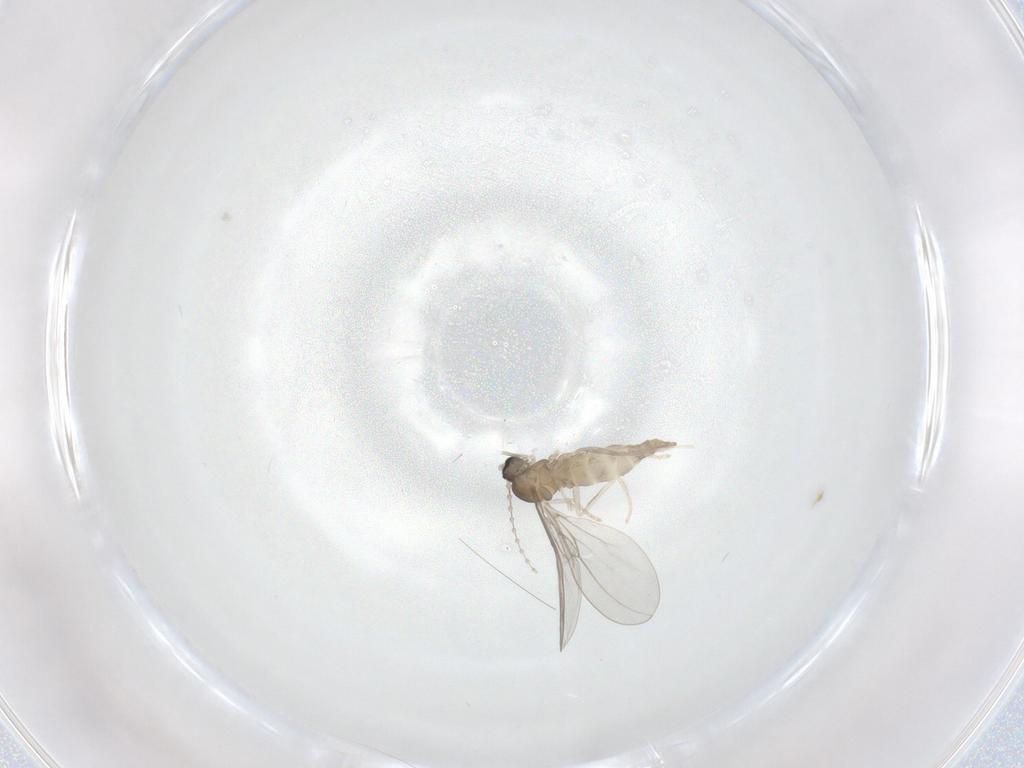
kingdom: Animalia
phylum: Arthropoda
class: Insecta
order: Diptera
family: Cecidomyiidae
